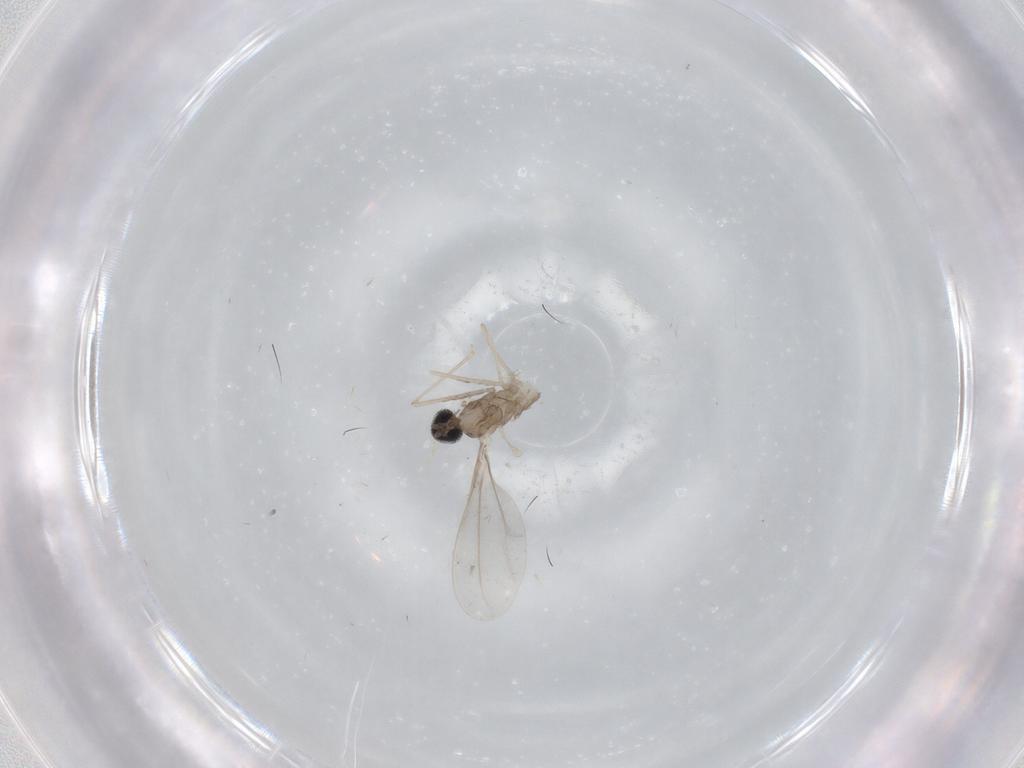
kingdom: Animalia
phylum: Arthropoda
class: Insecta
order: Diptera
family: Cecidomyiidae
